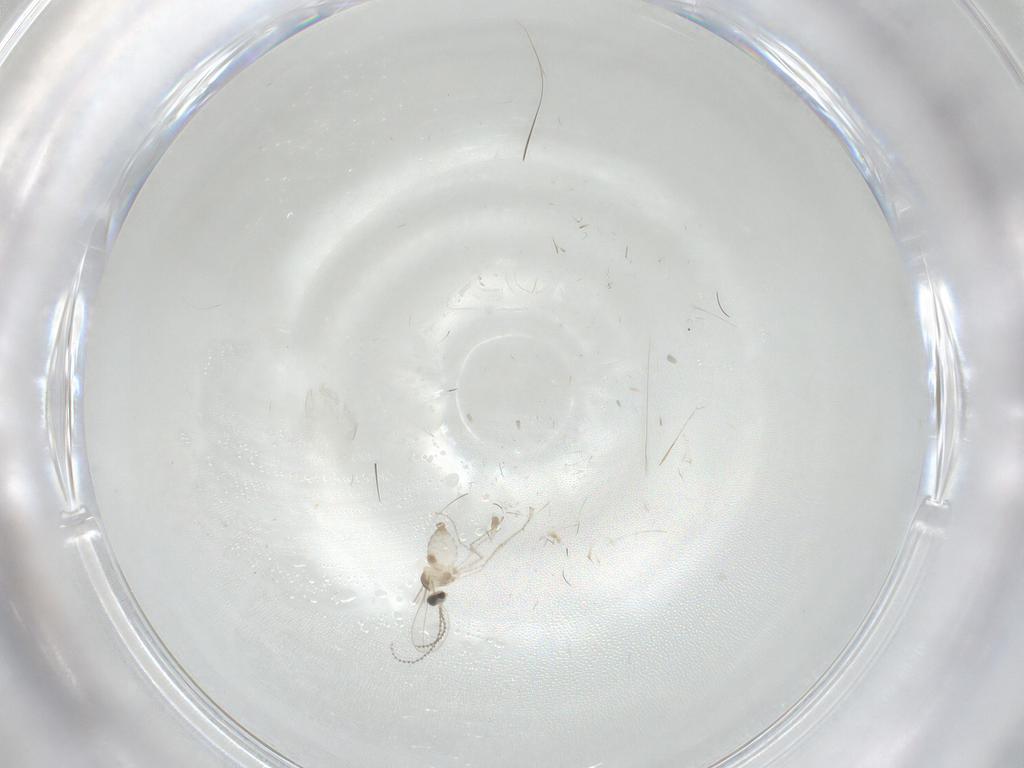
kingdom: Animalia
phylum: Arthropoda
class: Insecta
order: Diptera
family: Cecidomyiidae
